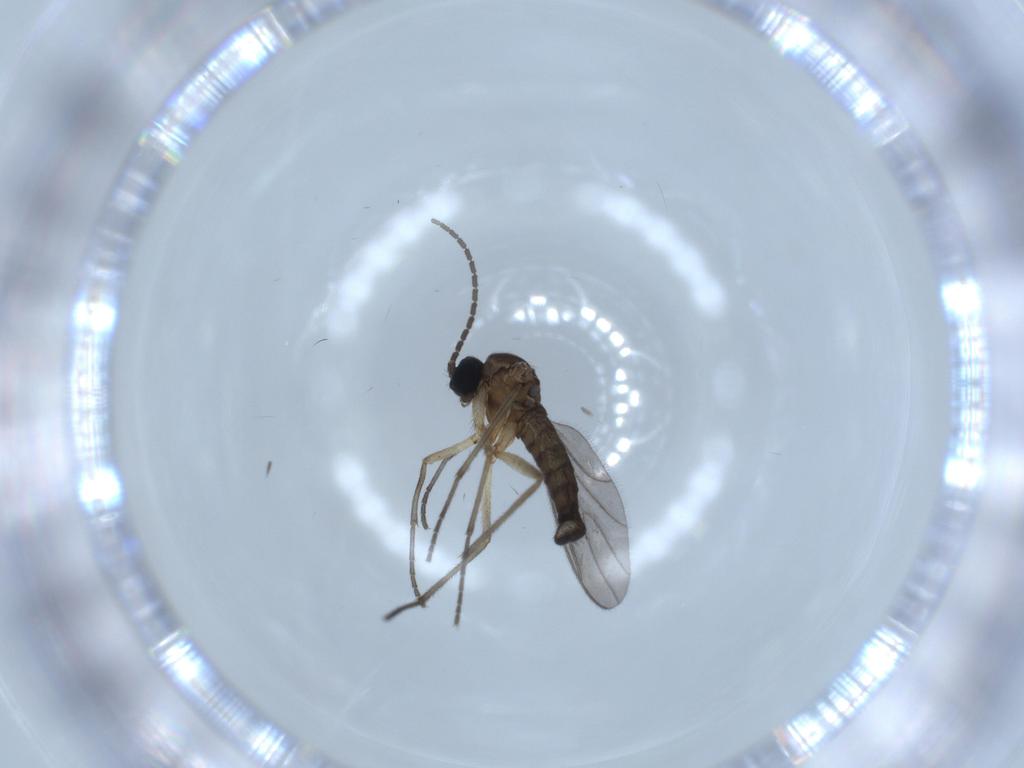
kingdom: Animalia
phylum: Arthropoda
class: Insecta
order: Diptera
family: Sciaridae
